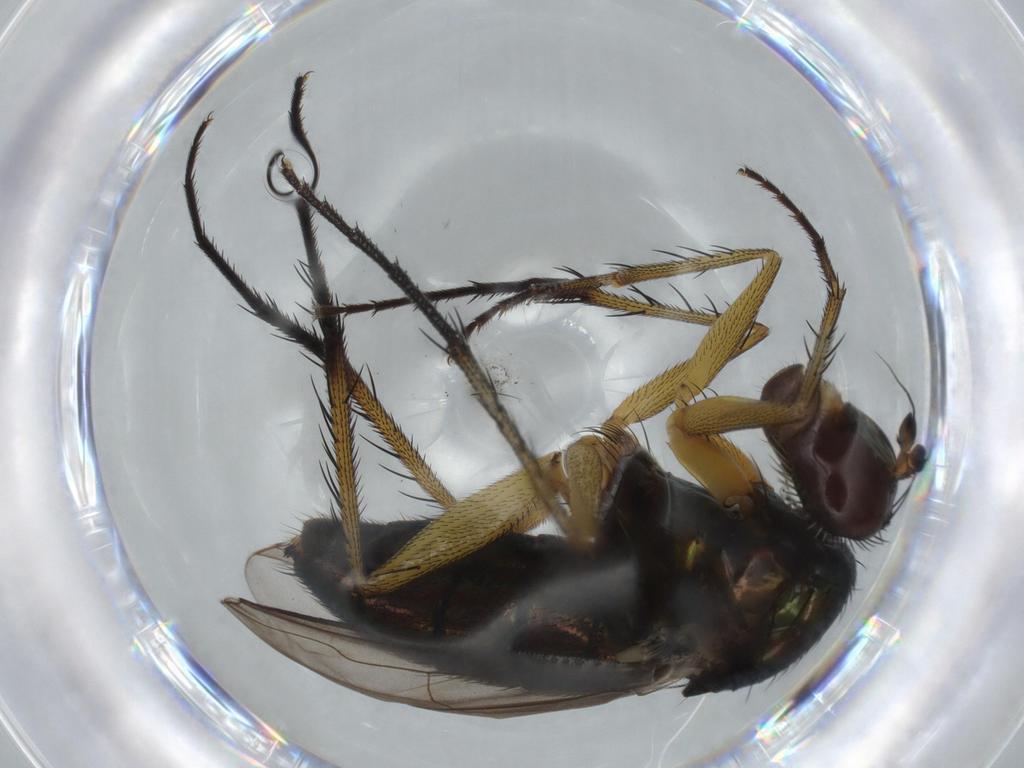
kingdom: Animalia
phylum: Arthropoda
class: Insecta
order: Diptera
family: Dolichopodidae
